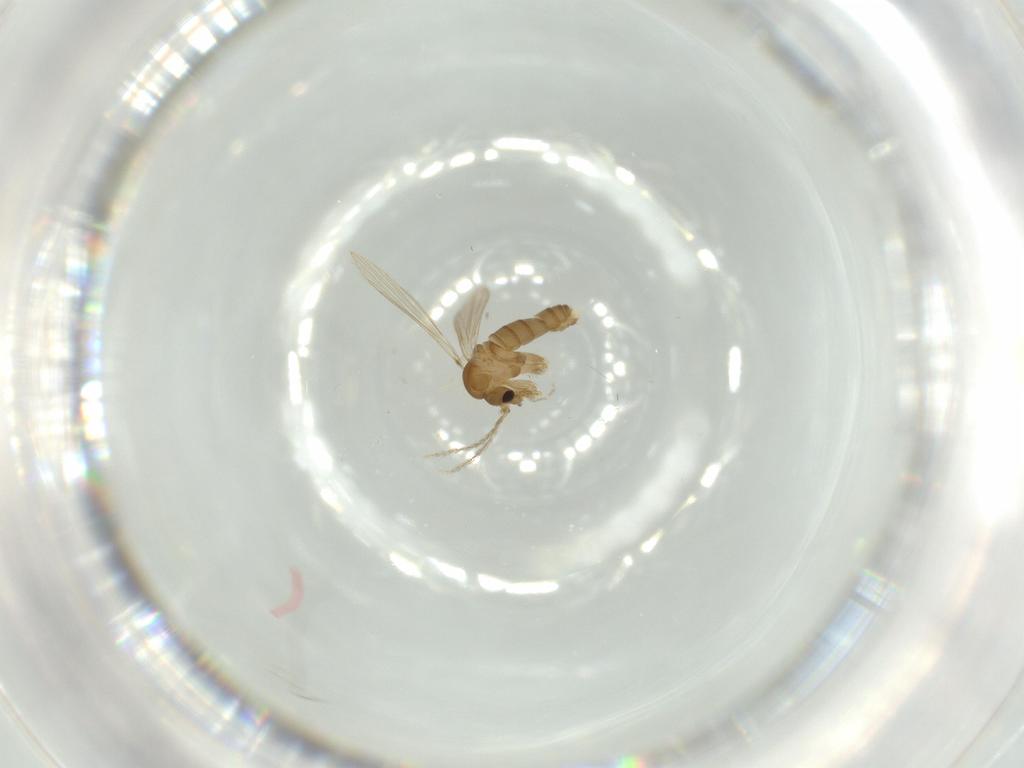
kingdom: Animalia
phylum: Arthropoda
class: Insecta
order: Diptera
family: Psychodidae
